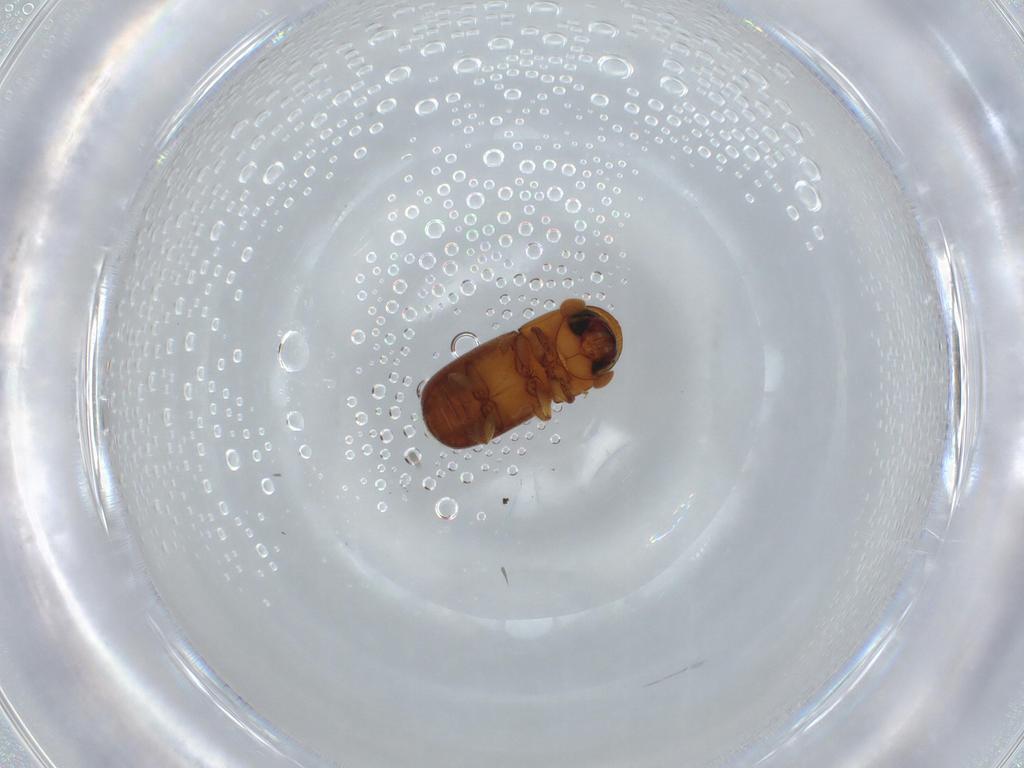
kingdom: Animalia
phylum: Arthropoda
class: Insecta
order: Coleoptera
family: Curculionidae
